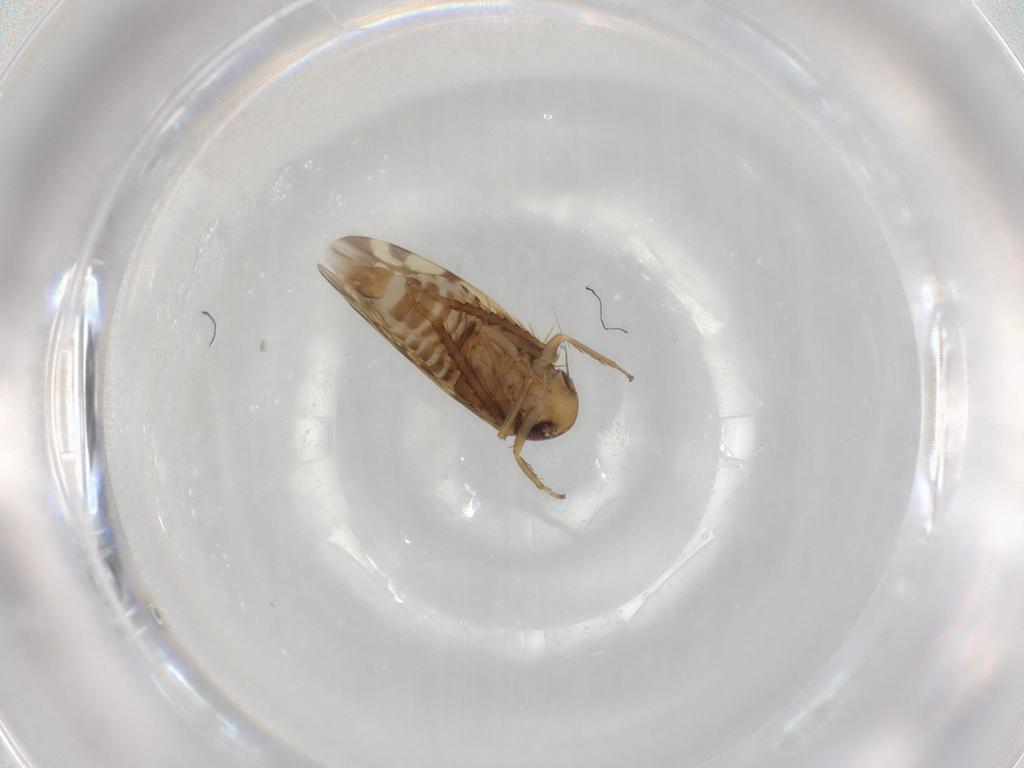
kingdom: Animalia
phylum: Arthropoda
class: Insecta
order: Hemiptera
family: Cicadellidae
